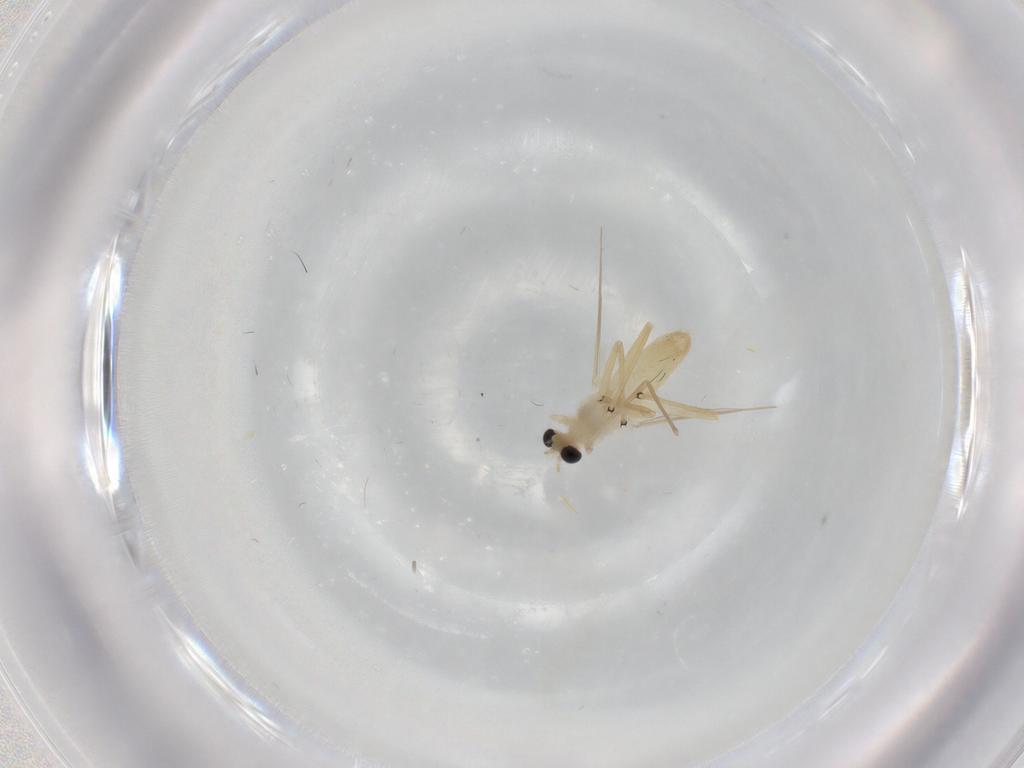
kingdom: Animalia
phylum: Arthropoda
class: Insecta
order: Diptera
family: Chironomidae
